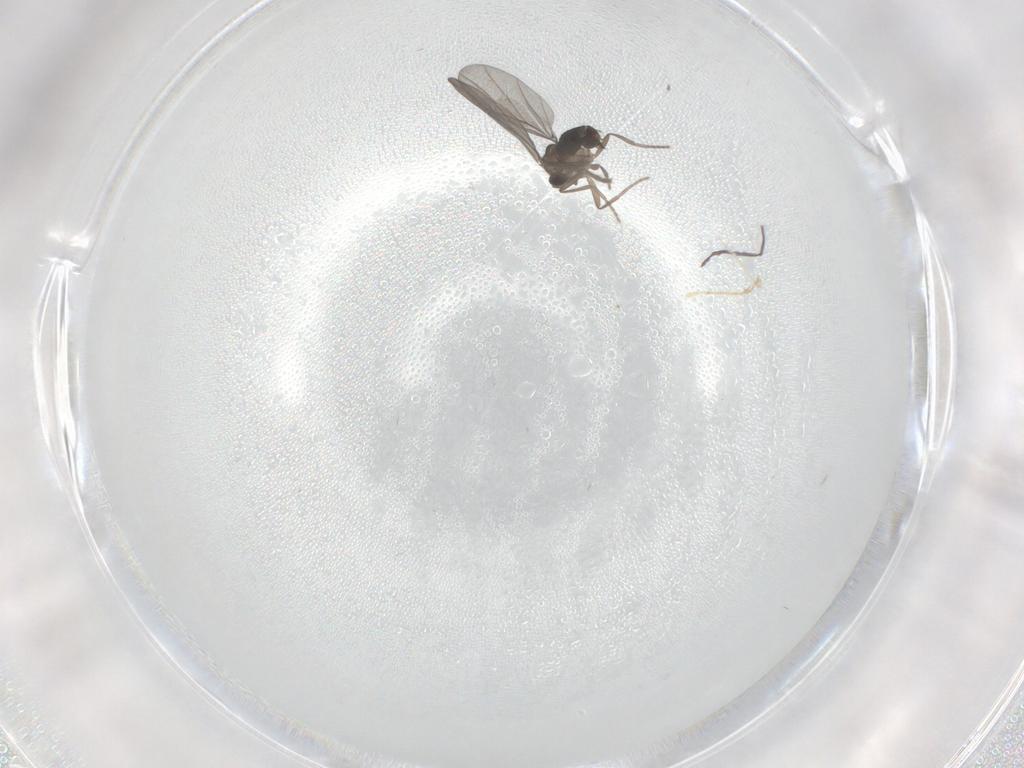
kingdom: Animalia
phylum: Arthropoda
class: Insecta
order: Diptera
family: Sphaeroceridae
